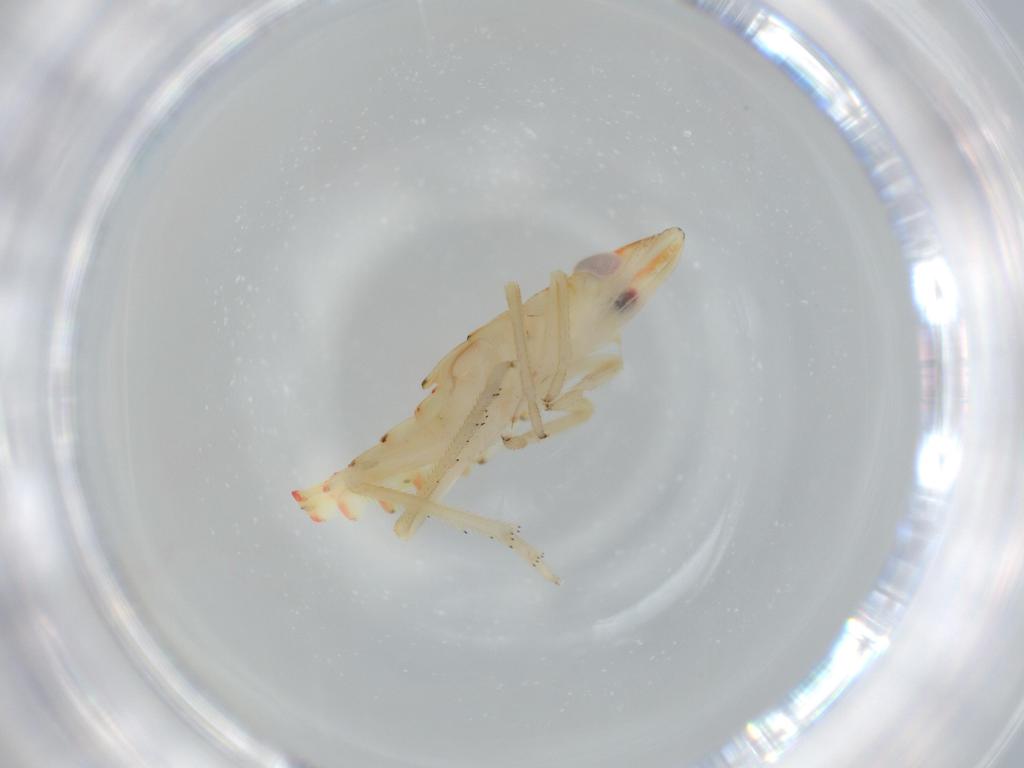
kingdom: Animalia
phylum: Arthropoda
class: Insecta
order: Hemiptera
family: Tropiduchidae
